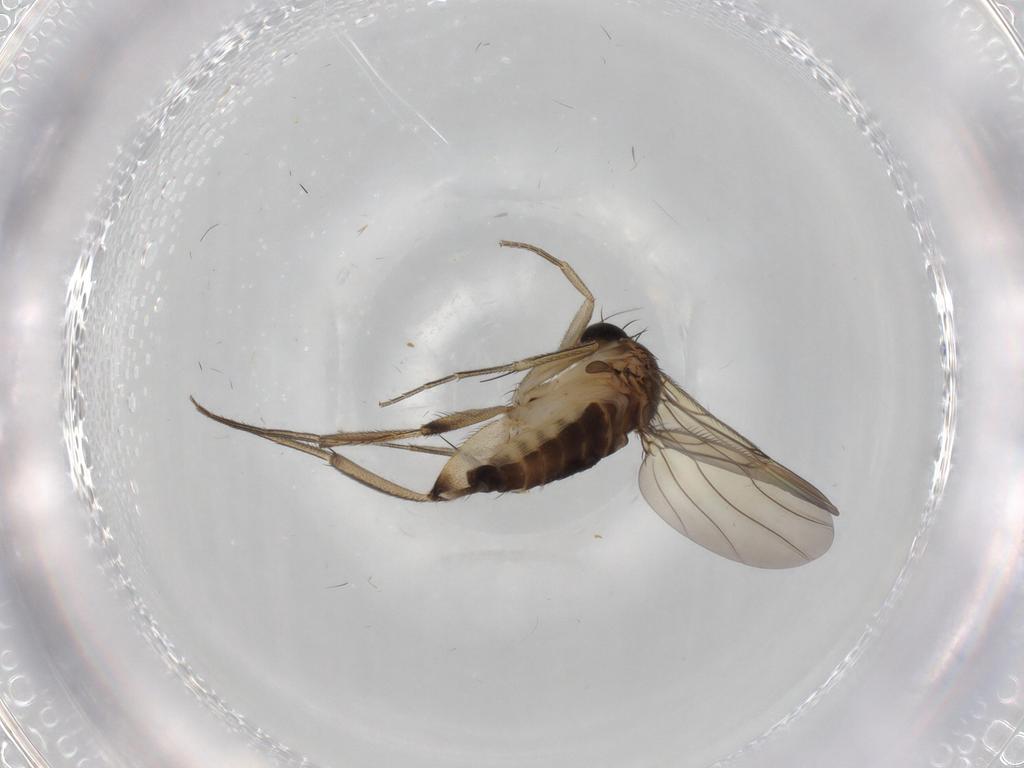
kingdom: Animalia
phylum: Arthropoda
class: Insecta
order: Diptera
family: Phoridae
